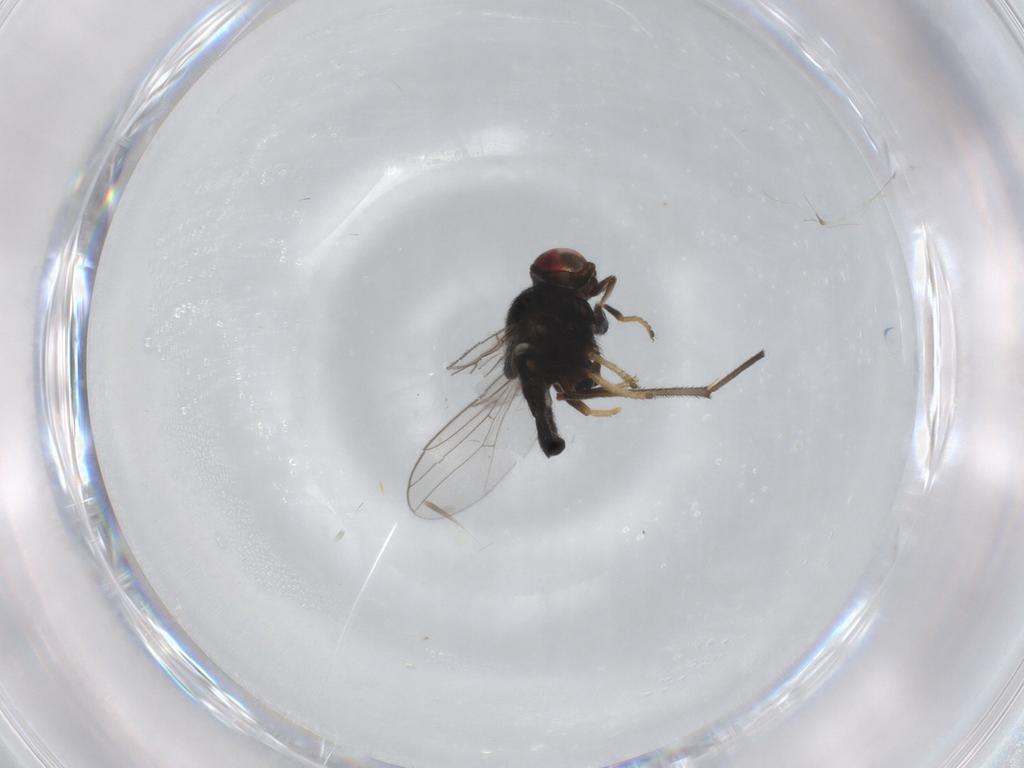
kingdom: Animalia
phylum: Arthropoda
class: Insecta
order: Diptera
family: Chloropidae
